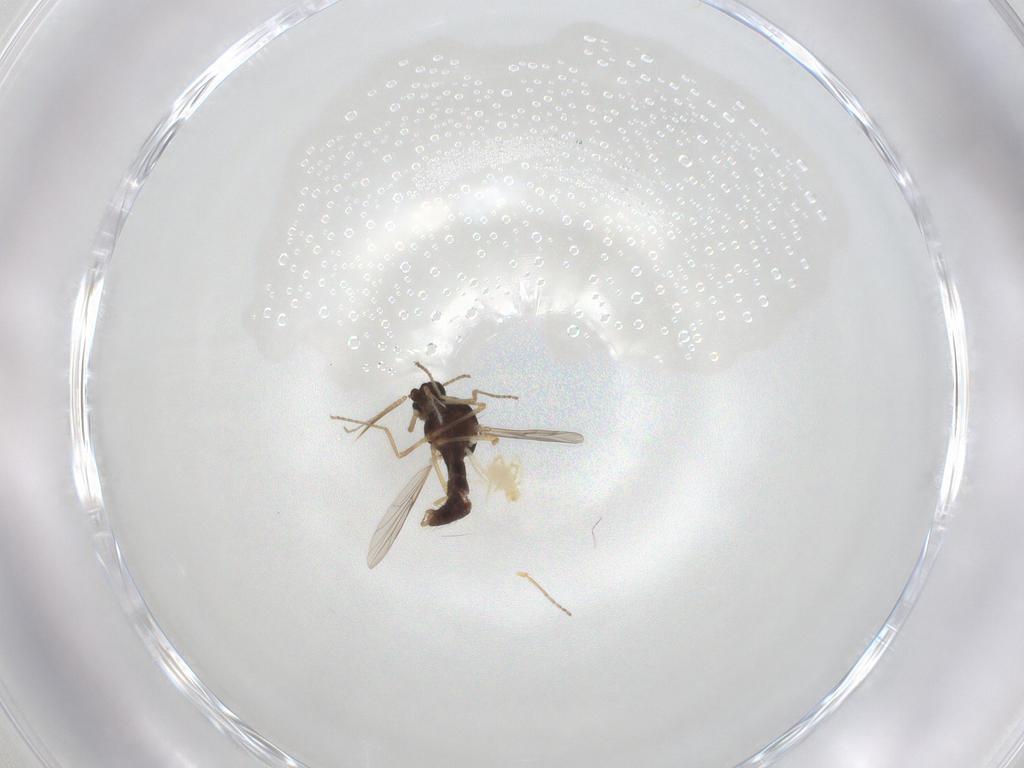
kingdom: Animalia
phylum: Arthropoda
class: Insecta
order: Diptera
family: Ceratopogonidae
